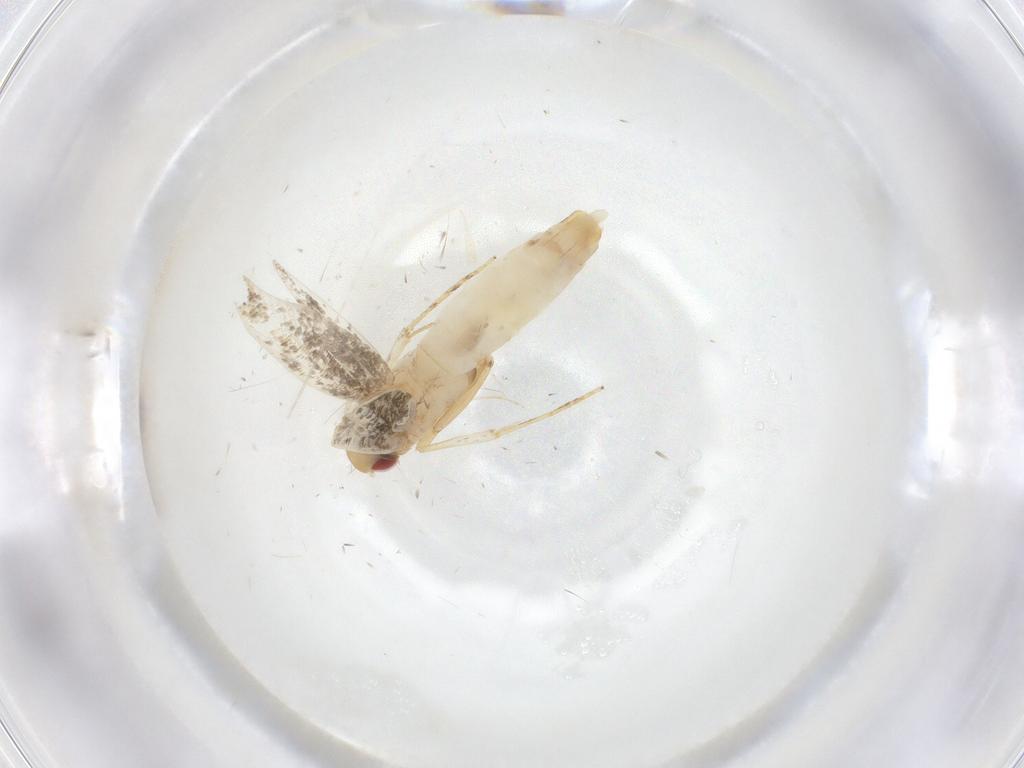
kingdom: Animalia
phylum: Arthropoda
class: Insecta
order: Lepidoptera
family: Cosmopterigidae
